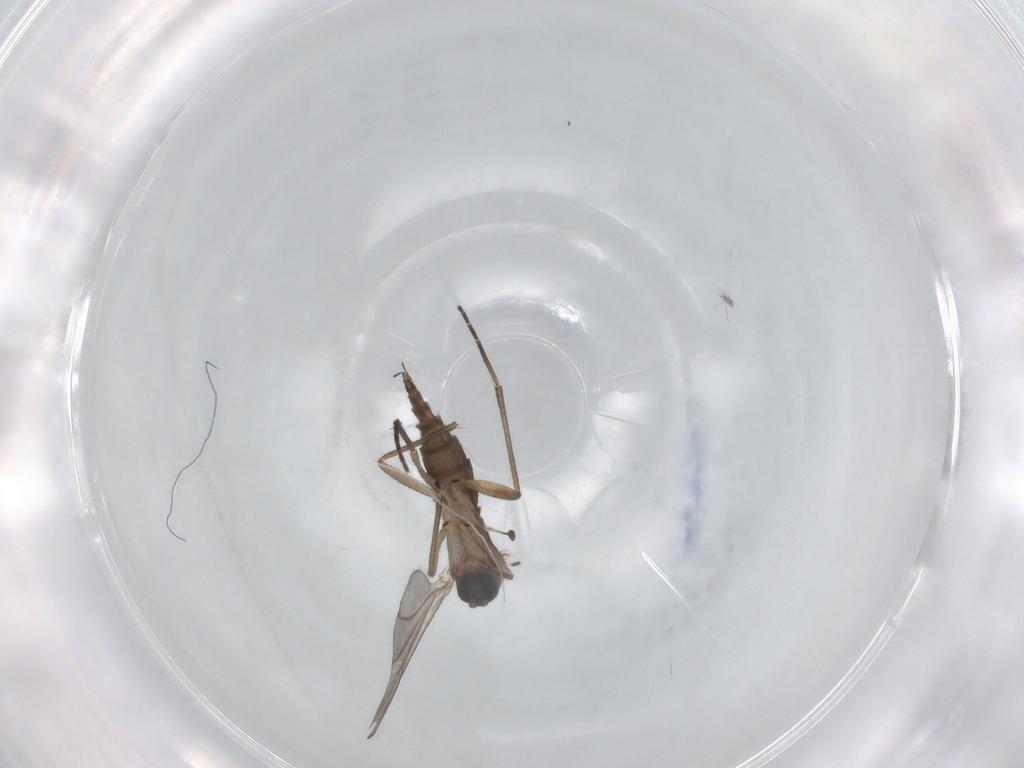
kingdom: Animalia
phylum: Arthropoda
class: Insecta
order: Diptera
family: Sciaridae
